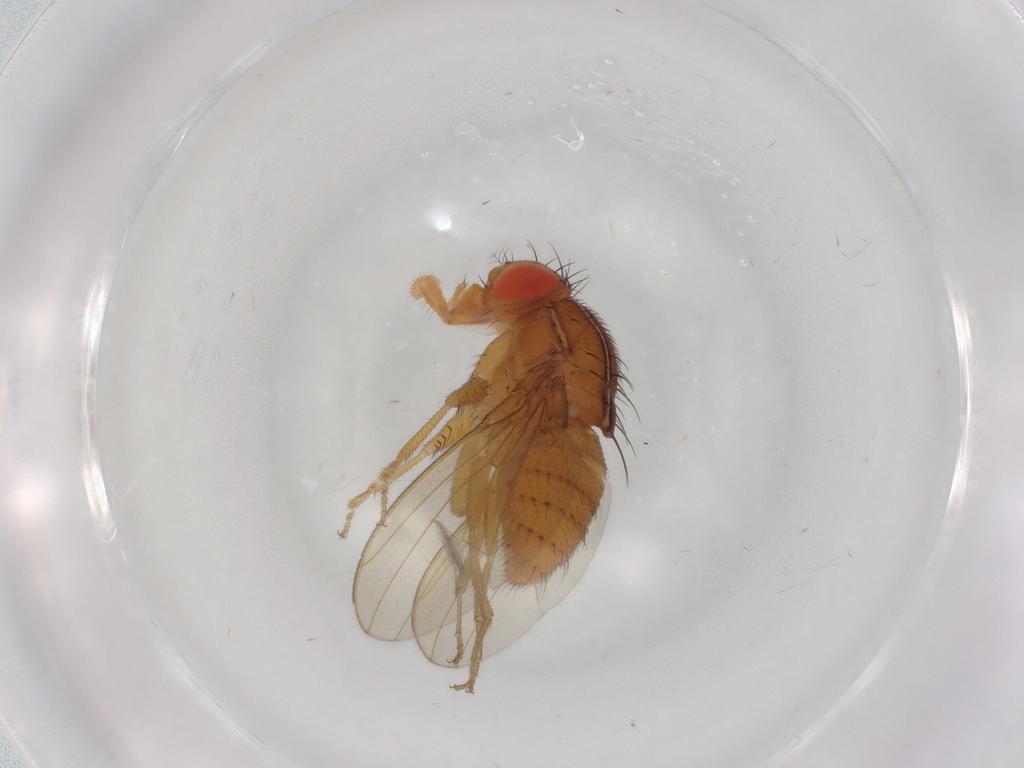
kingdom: Animalia
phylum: Arthropoda
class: Insecta
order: Diptera
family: Drosophilidae
